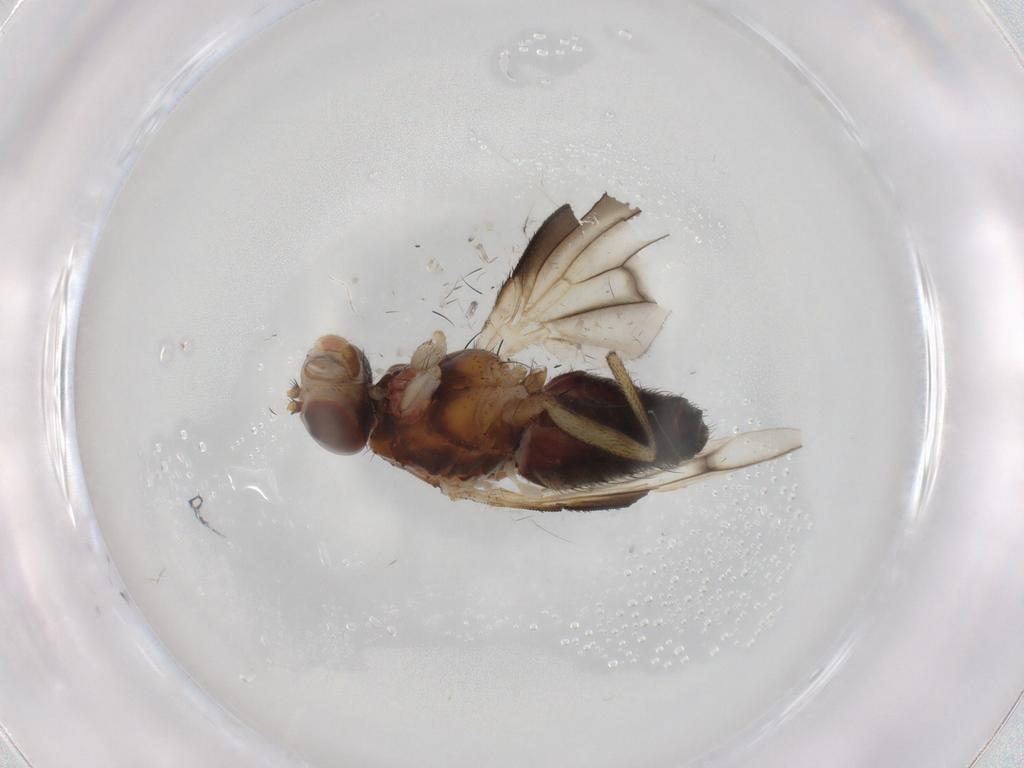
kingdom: Animalia
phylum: Arthropoda
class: Insecta
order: Diptera
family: Heleomyzidae
